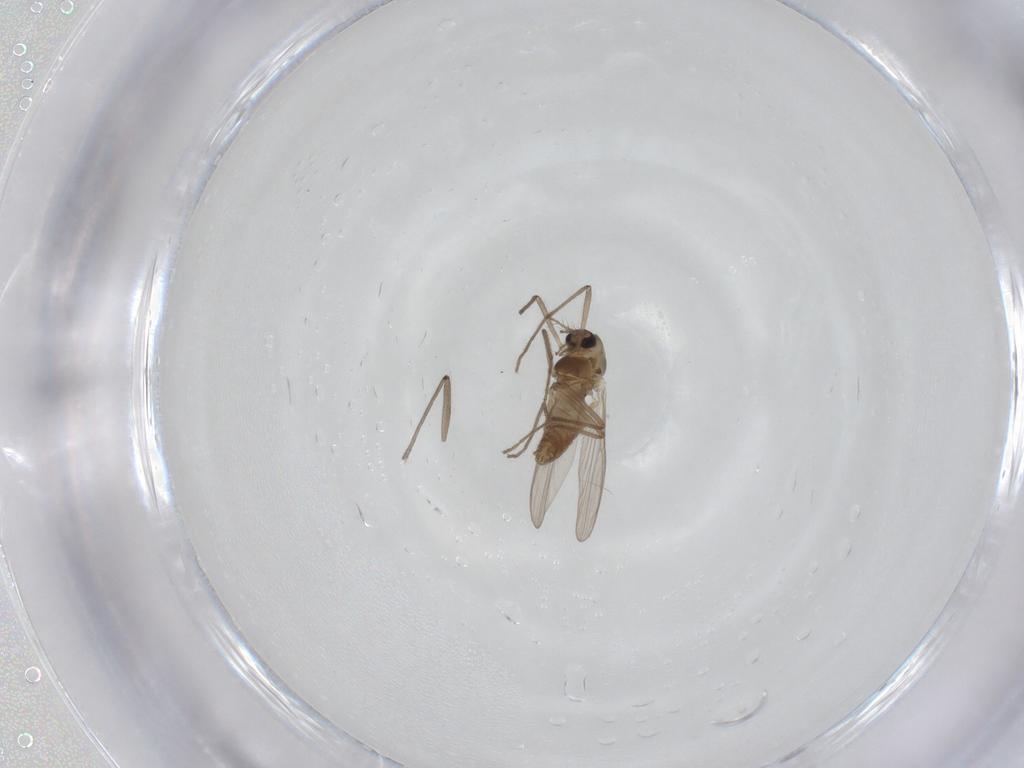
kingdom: Animalia
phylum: Arthropoda
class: Insecta
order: Diptera
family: Chironomidae
